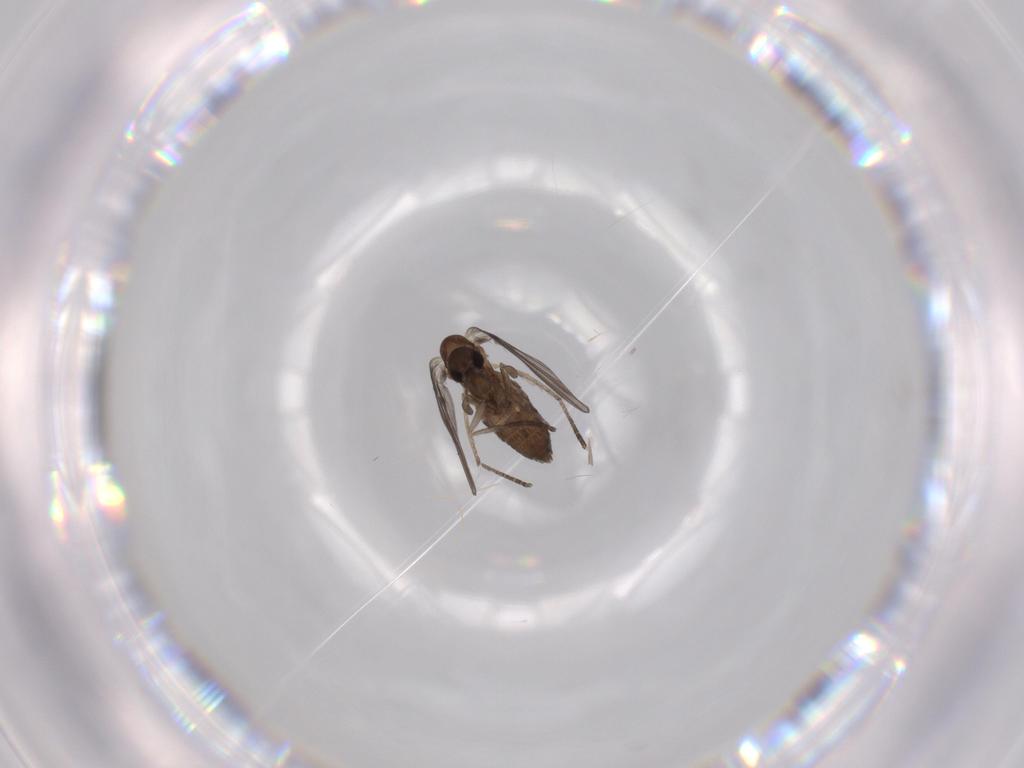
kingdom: Animalia
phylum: Arthropoda
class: Insecta
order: Diptera
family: Psychodidae
